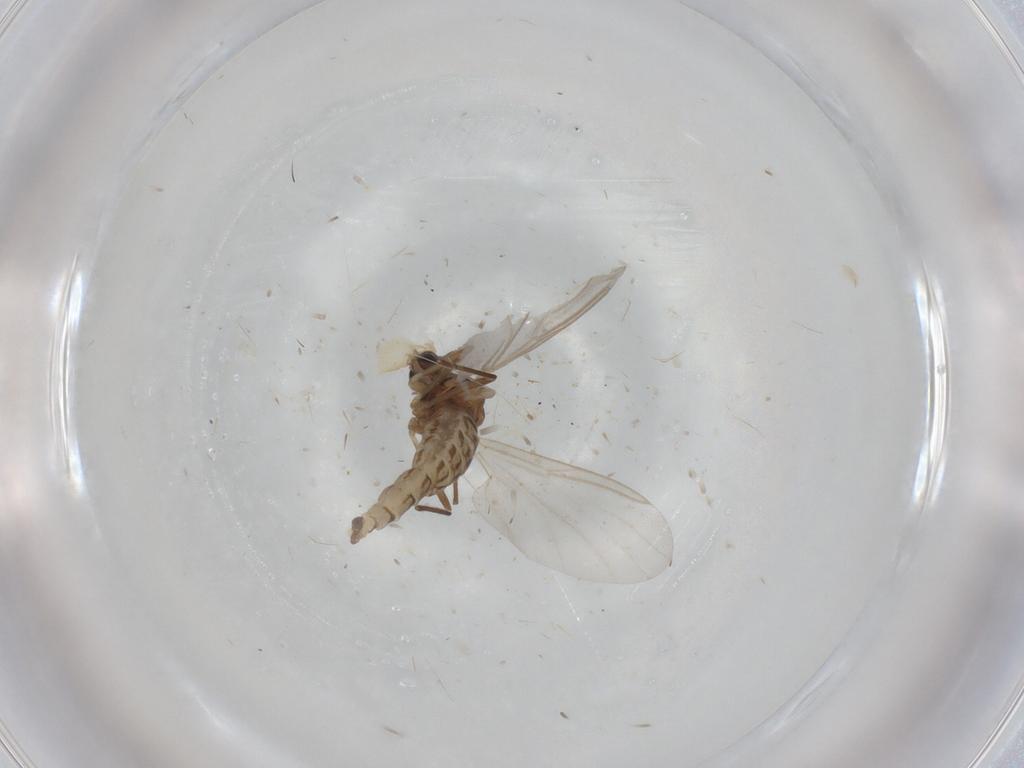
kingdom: Animalia
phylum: Arthropoda
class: Insecta
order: Diptera
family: Cecidomyiidae
